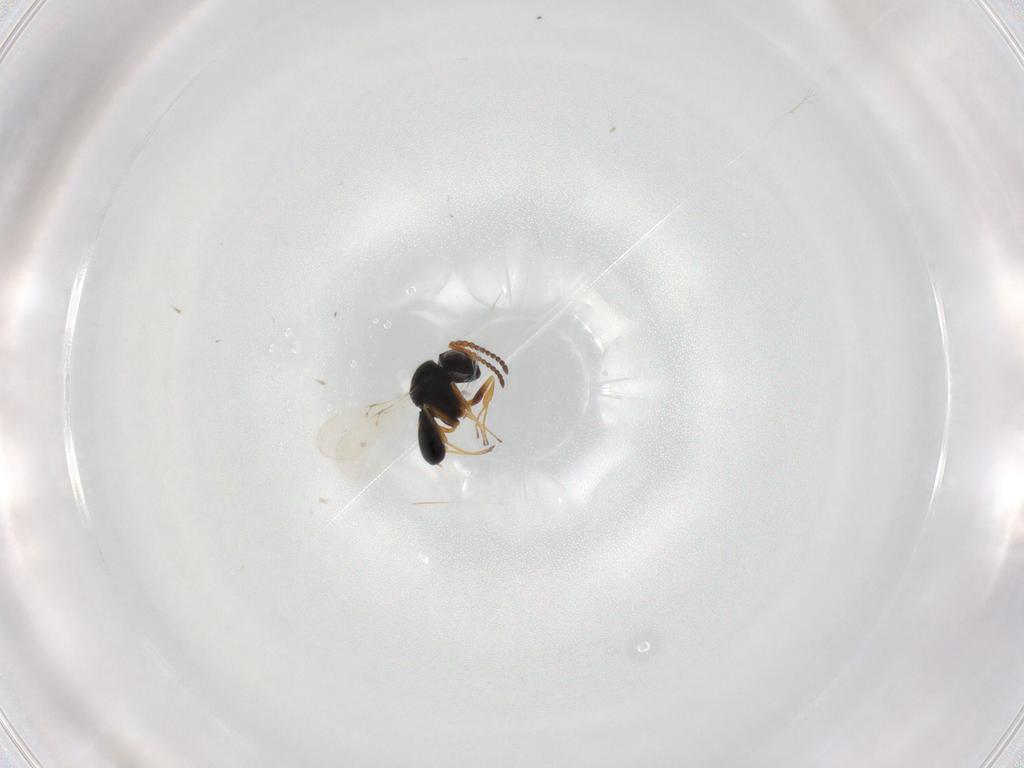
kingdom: Animalia
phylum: Arthropoda
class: Insecta
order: Hymenoptera
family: Scelionidae
